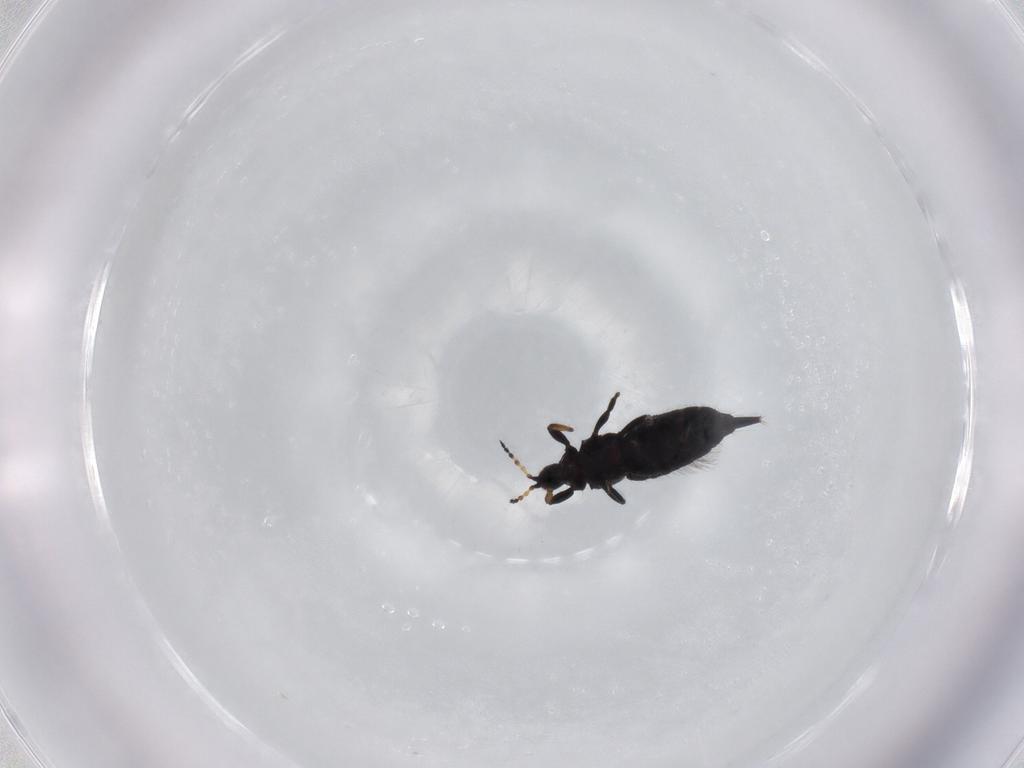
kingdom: Animalia
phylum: Arthropoda
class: Insecta
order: Thysanoptera
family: Phlaeothripidae
